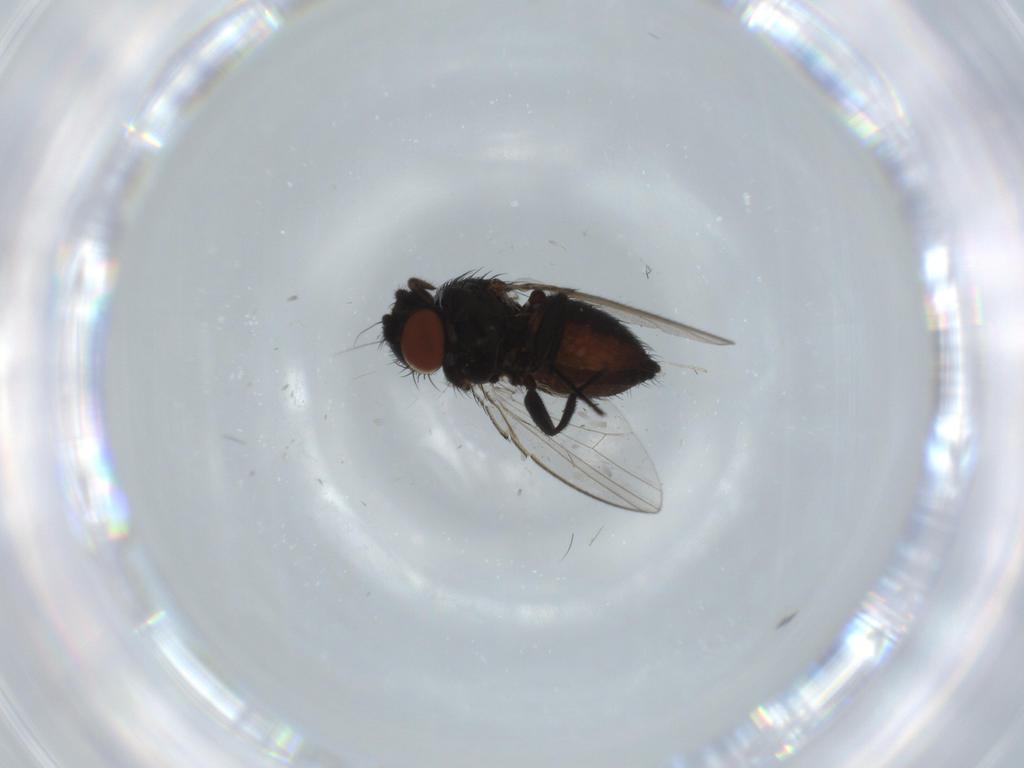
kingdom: Animalia
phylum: Arthropoda
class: Insecta
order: Diptera
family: Milichiidae
